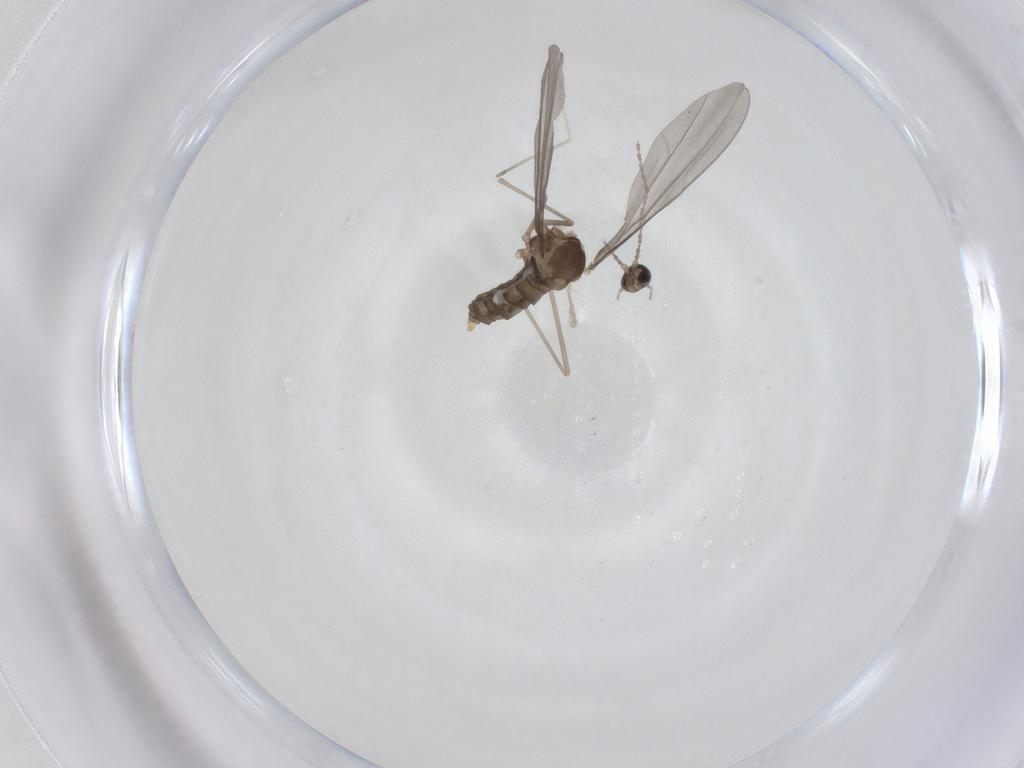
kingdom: Animalia
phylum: Arthropoda
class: Insecta
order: Diptera
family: Cecidomyiidae
